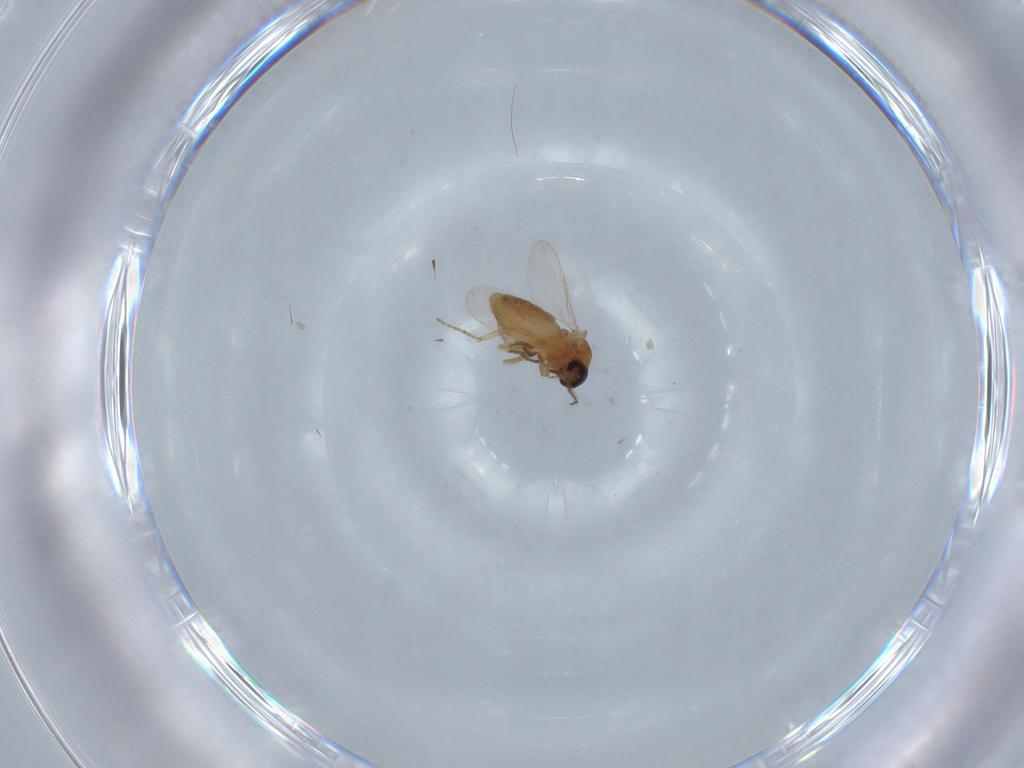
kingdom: Animalia
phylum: Arthropoda
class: Insecta
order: Diptera
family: Ceratopogonidae
